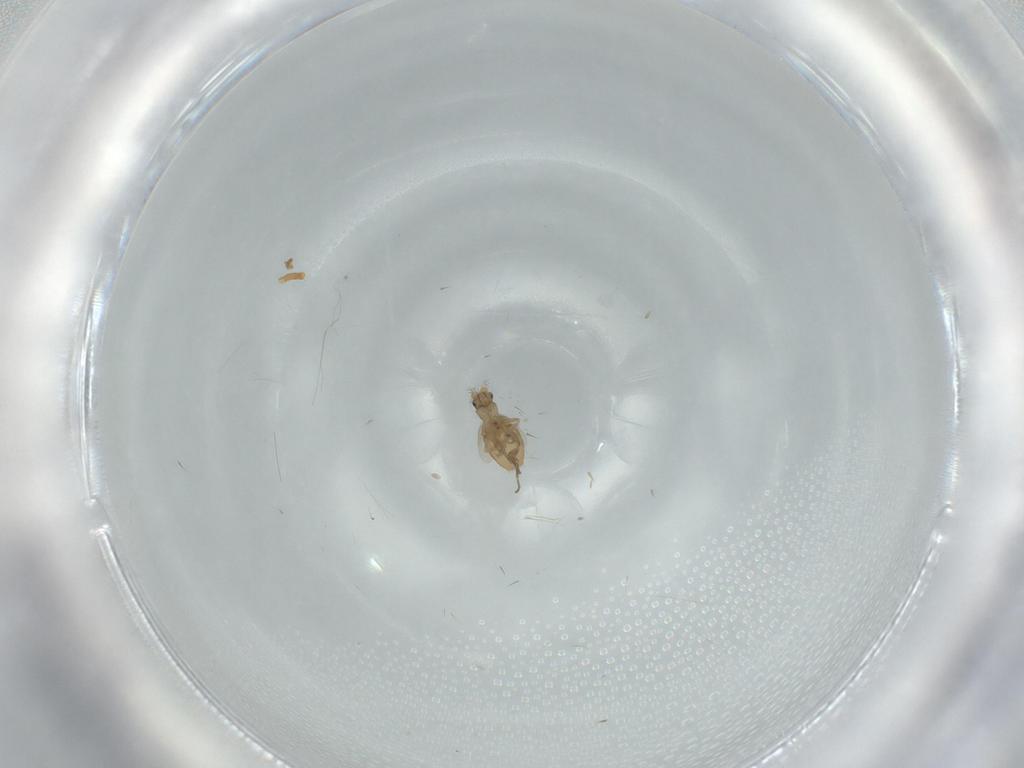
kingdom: Animalia
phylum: Arthropoda
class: Insecta
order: Diptera
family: Phoridae
